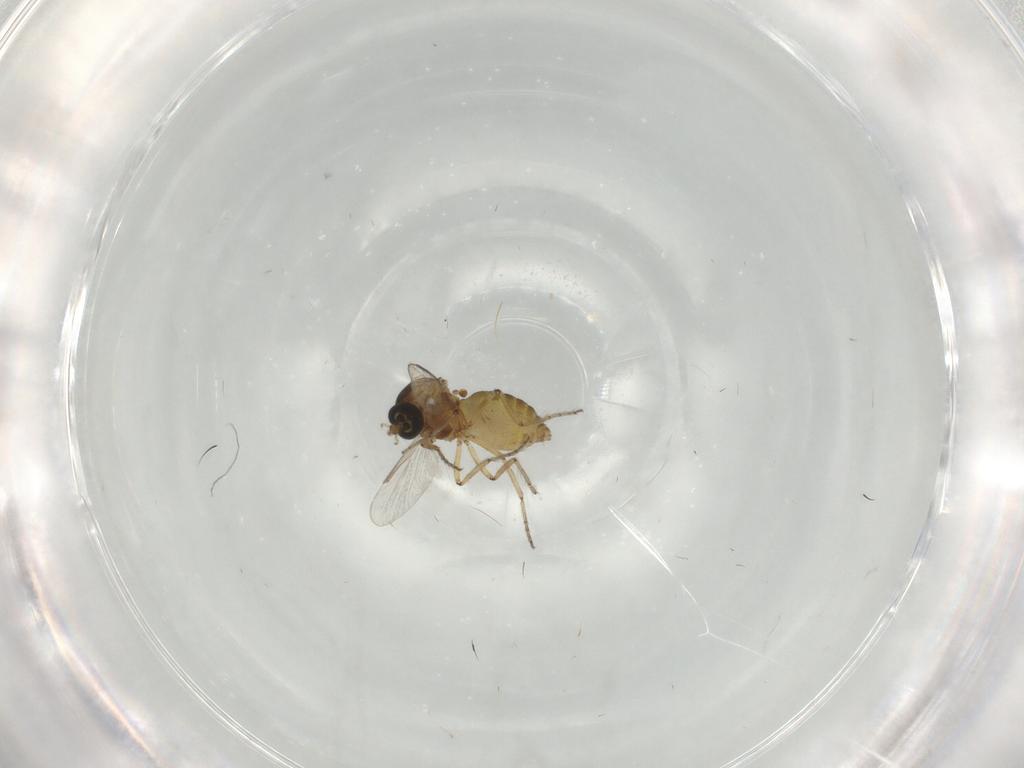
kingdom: Animalia
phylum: Arthropoda
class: Insecta
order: Diptera
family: Ceratopogonidae
